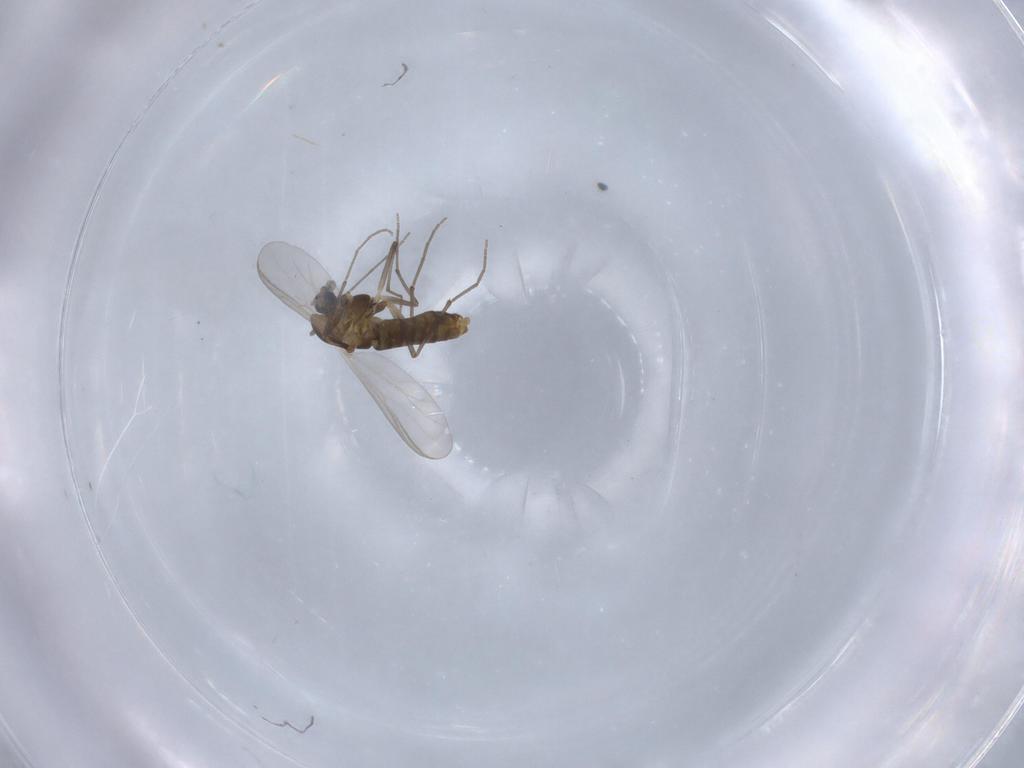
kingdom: Animalia
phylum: Arthropoda
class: Insecta
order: Diptera
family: Chironomidae
